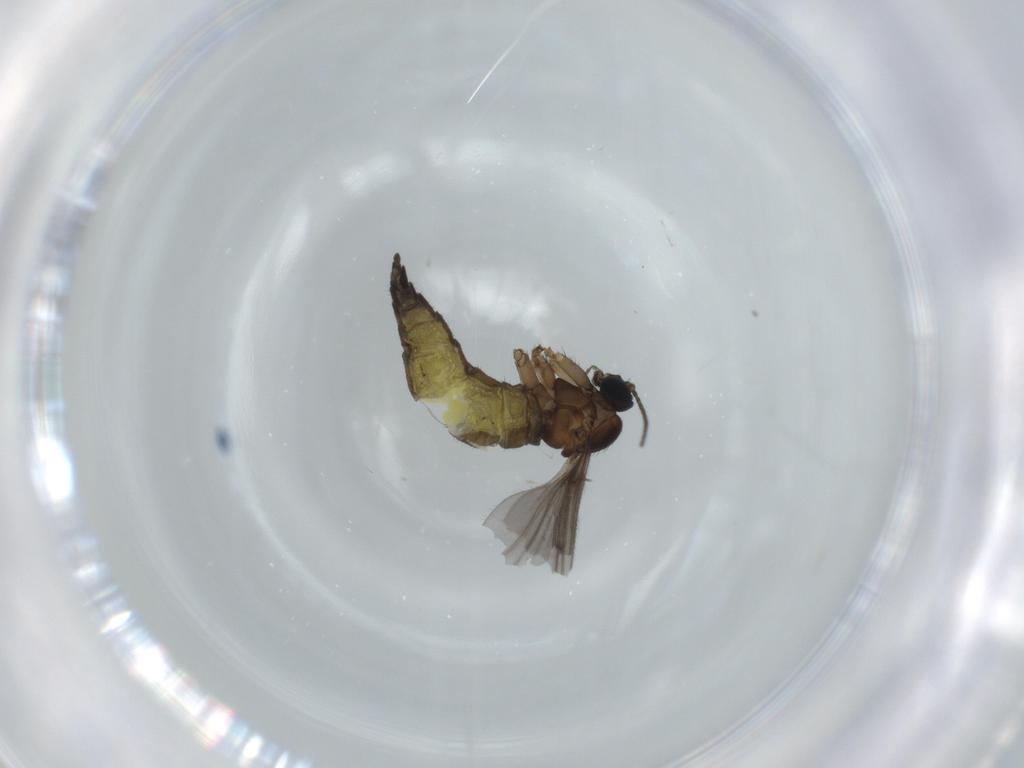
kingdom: Animalia
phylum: Arthropoda
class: Insecta
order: Diptera
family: Cecidomyiidae
